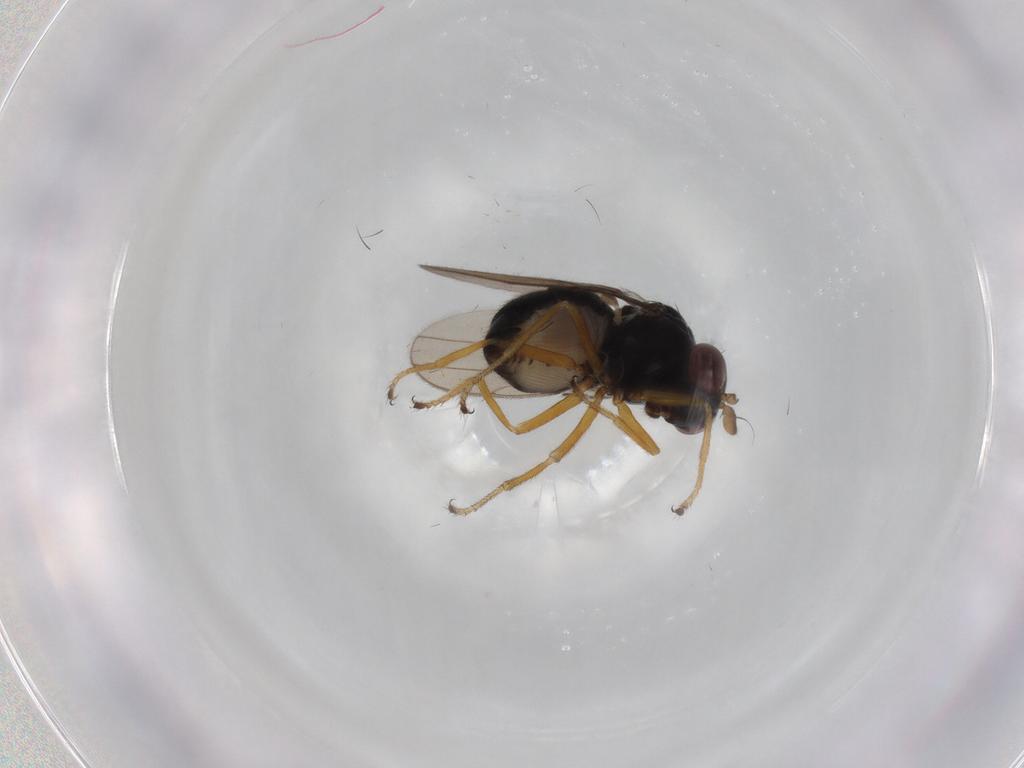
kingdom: Animalia
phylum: Arthropoda
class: Insecta
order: Diptera
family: Ephydridae
